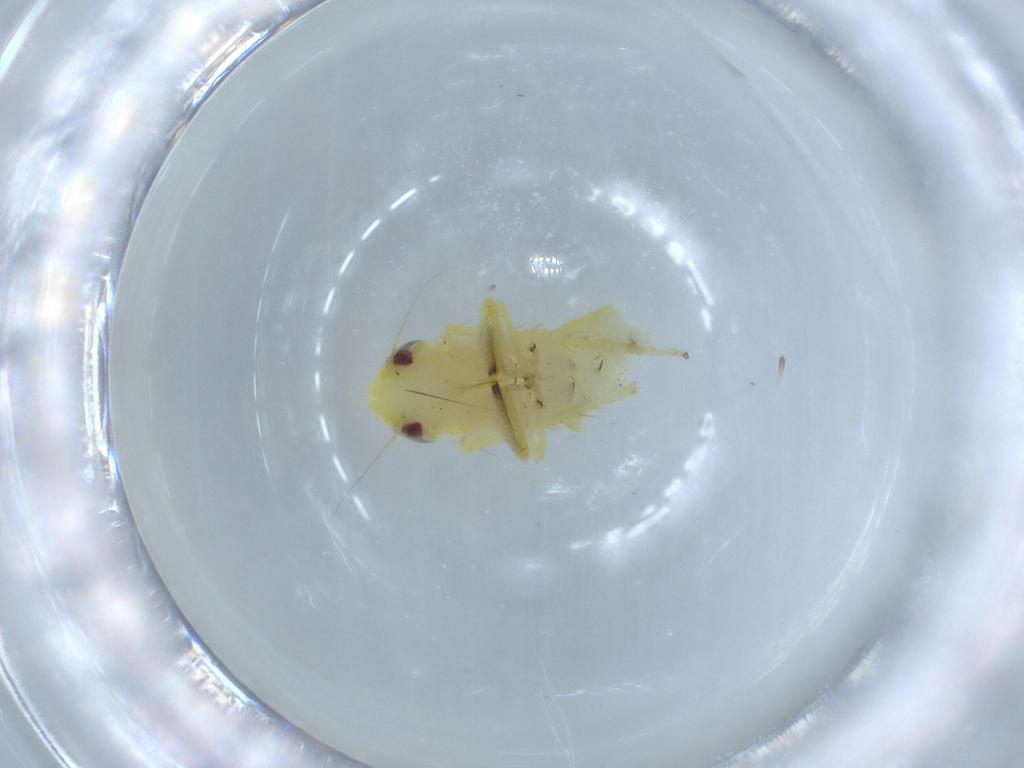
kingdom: Animalia
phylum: Arthropoda
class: Insecta
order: Hemiptera
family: Cicadellidae
